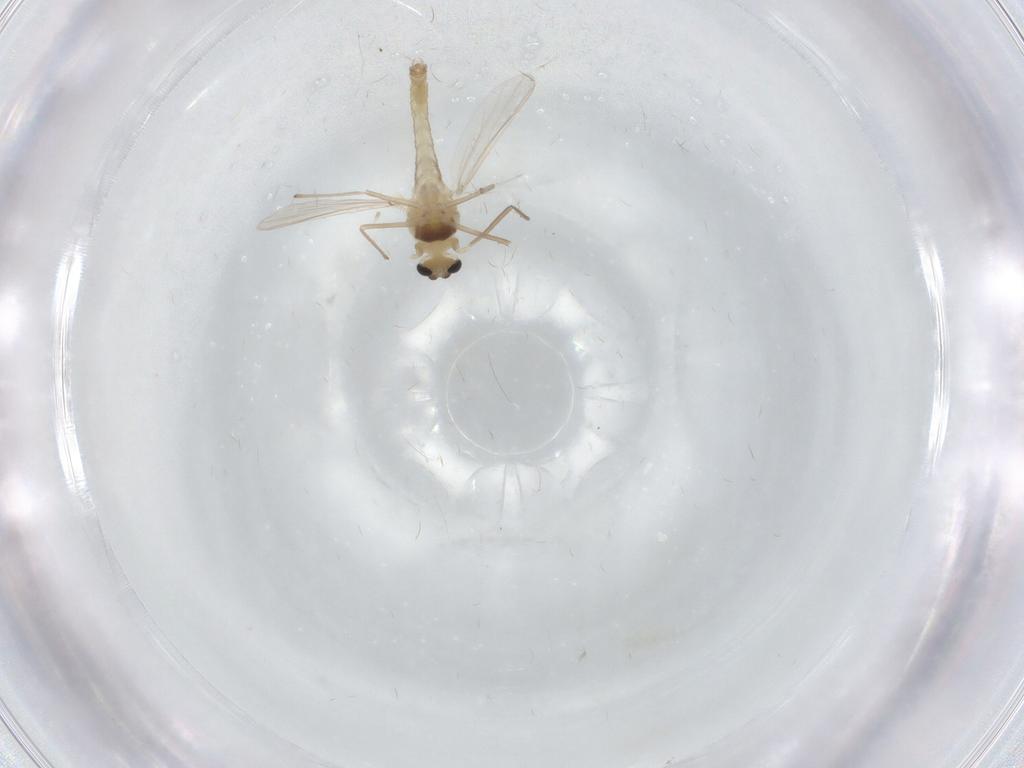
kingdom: Animalia
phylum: Arthropoda
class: Insecta
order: Diptera
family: Chironomidae
